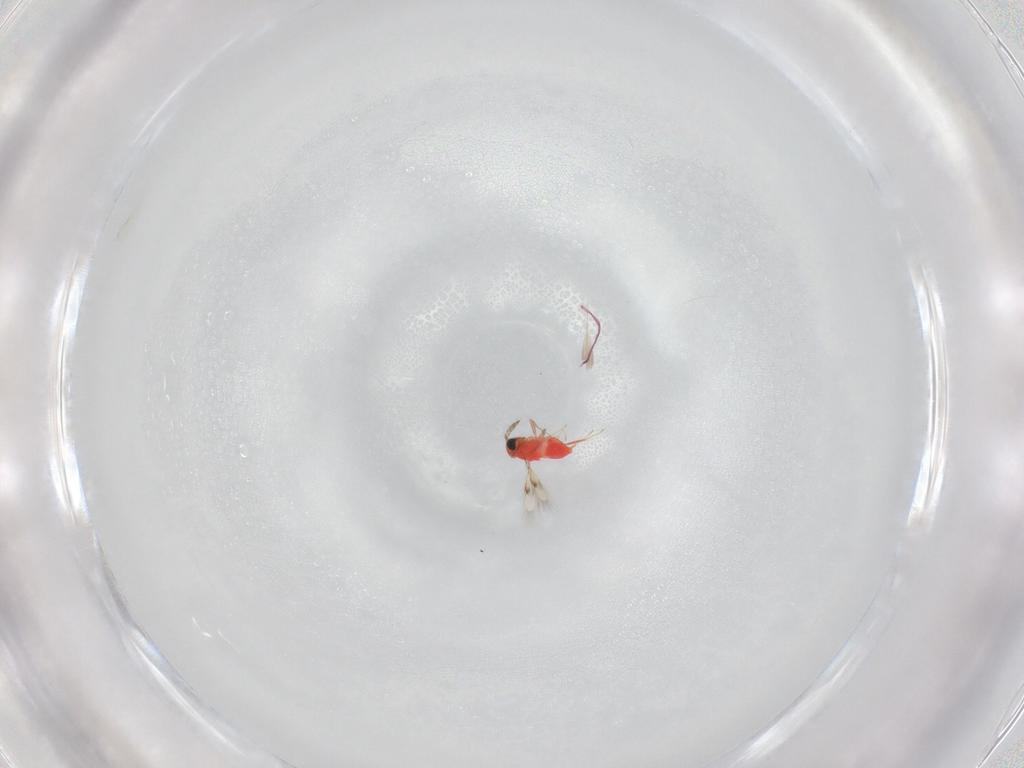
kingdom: Animalia
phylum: Arthropoda
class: Insecta
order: Hymenoptera
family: Trichogrammatidae
